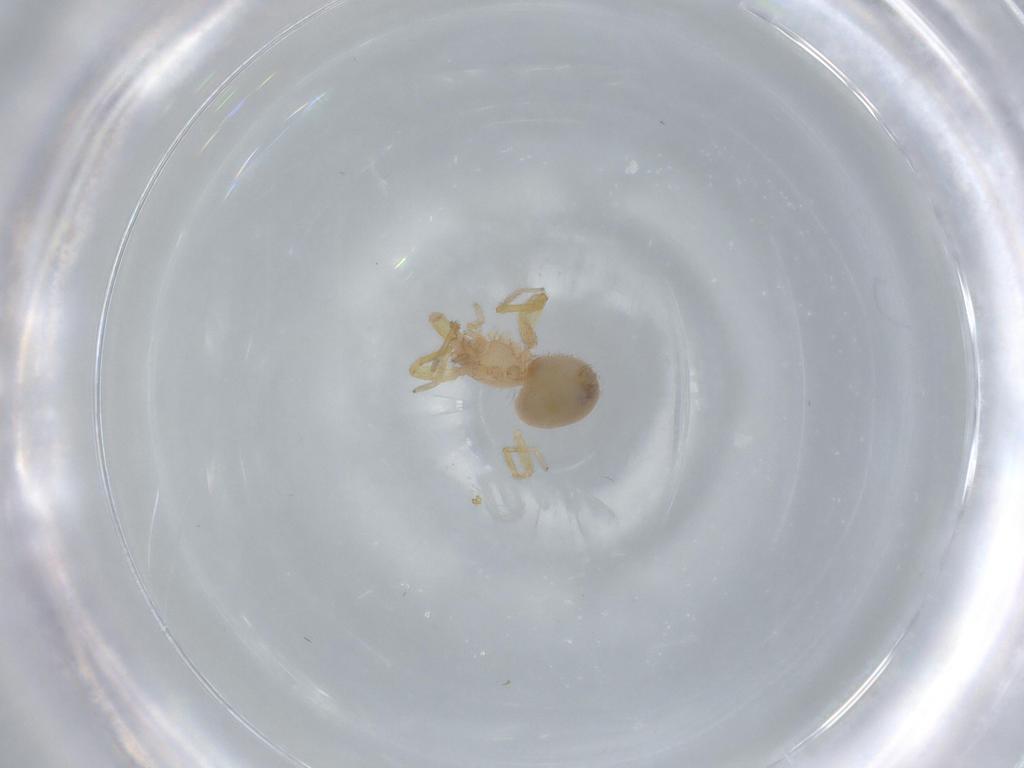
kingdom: Animalia
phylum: Arthropoda
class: Arachnida
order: Araneae
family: Oonopidae
